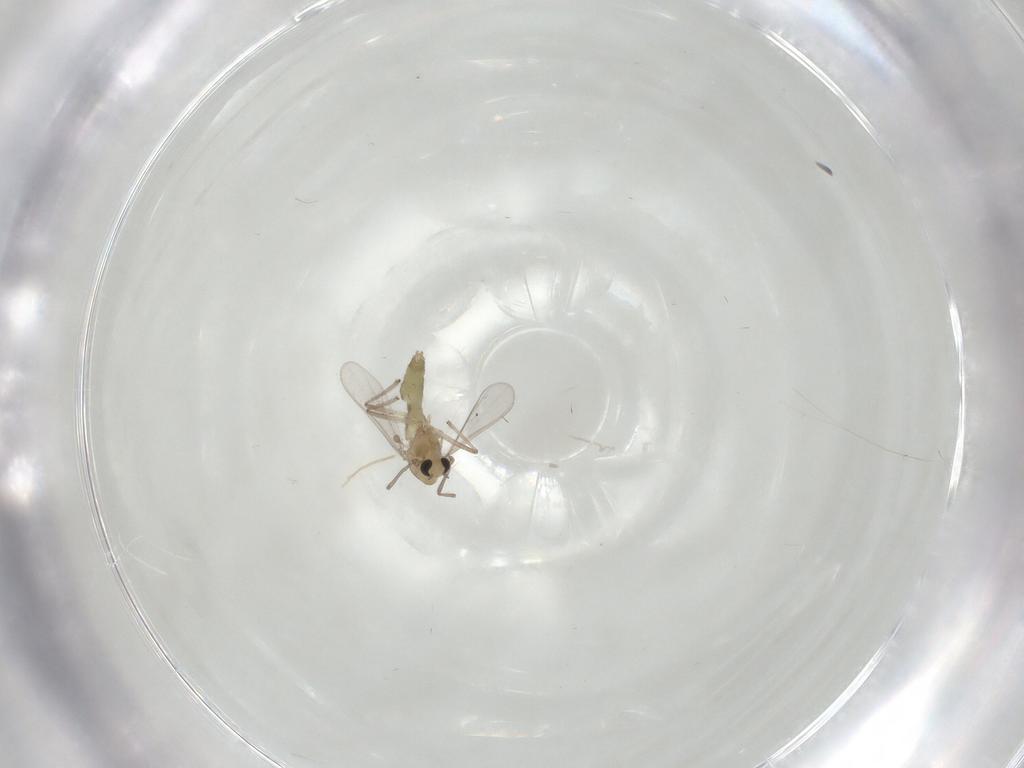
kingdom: Animalia
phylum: Arthropoda
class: Insecta
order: Diptera
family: Chironomidae
